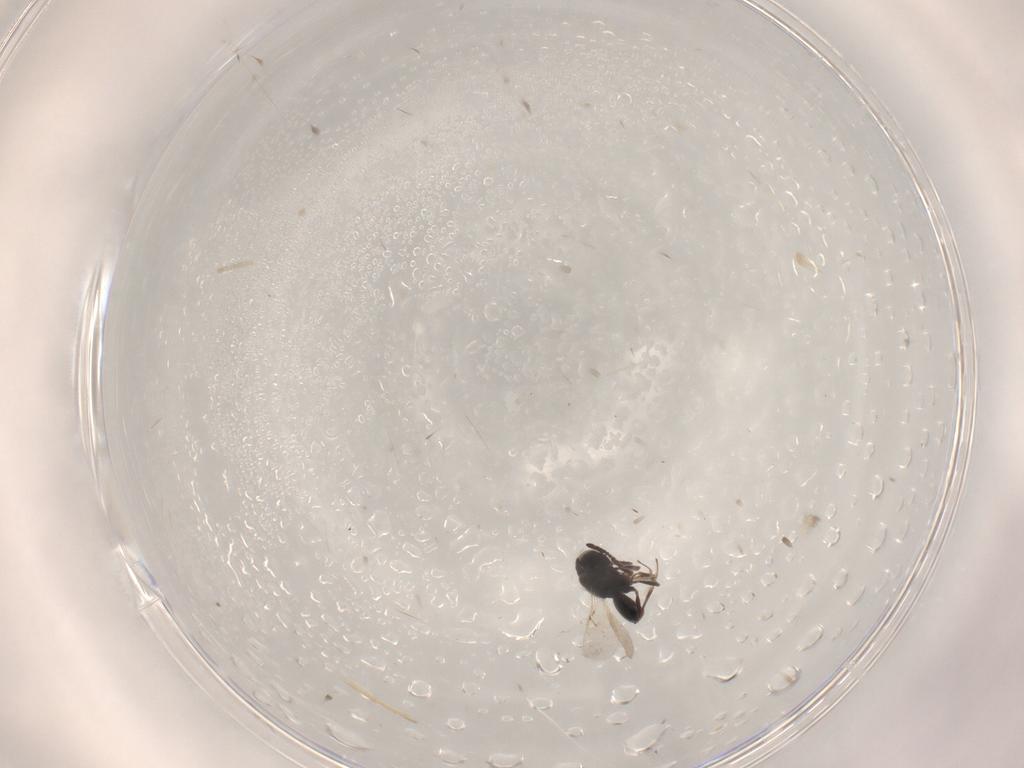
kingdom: Animalia
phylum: Arthropoda
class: Insecta
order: Hymenoptera
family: Scelionidae
